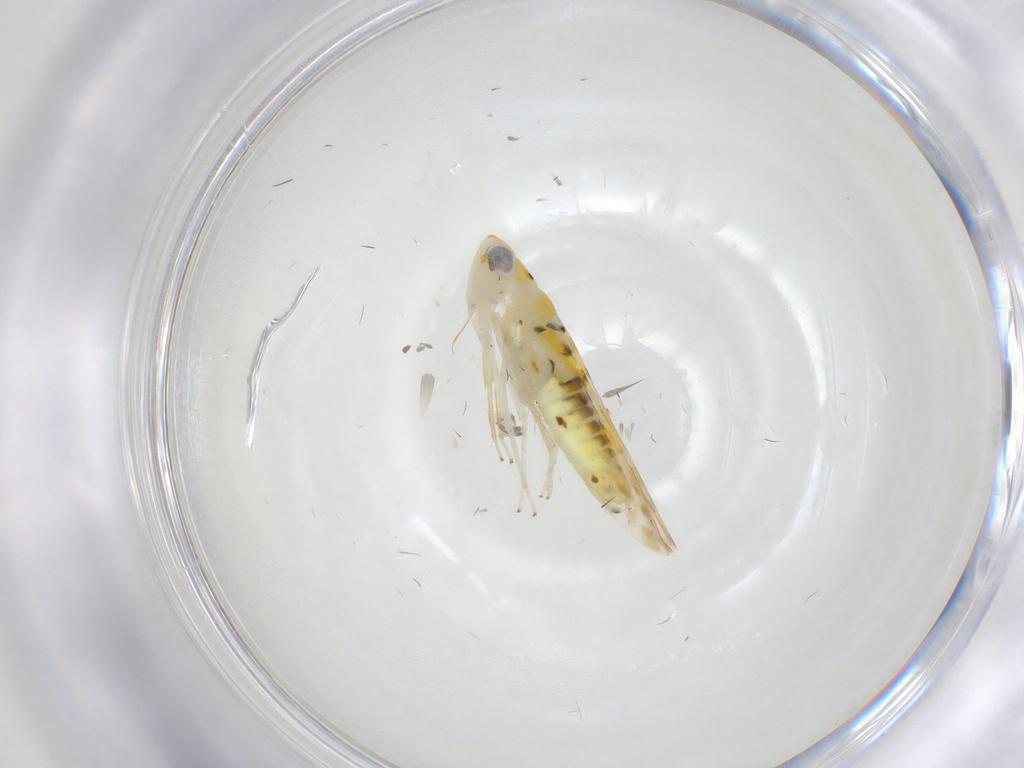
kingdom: Animalia
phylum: Arthropoda
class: Insecta
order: Hemiptera
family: Cicadellidae
